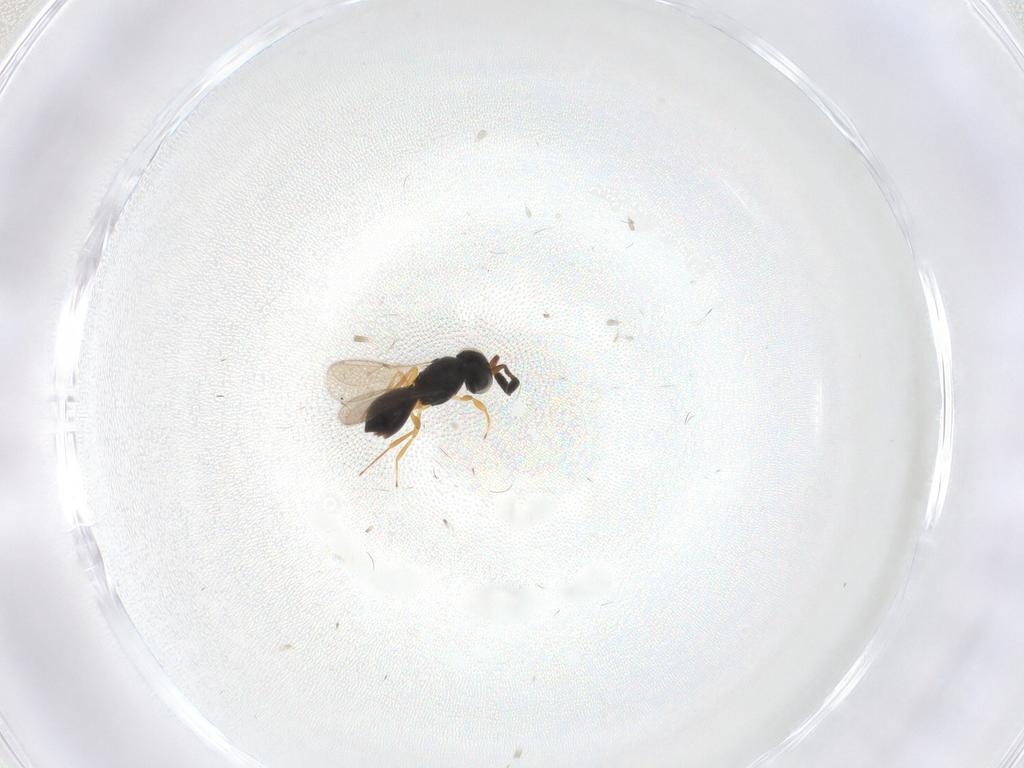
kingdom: Animalia
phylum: Arthropoda
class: Insecta
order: Hymenoptera
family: Scelionidae
